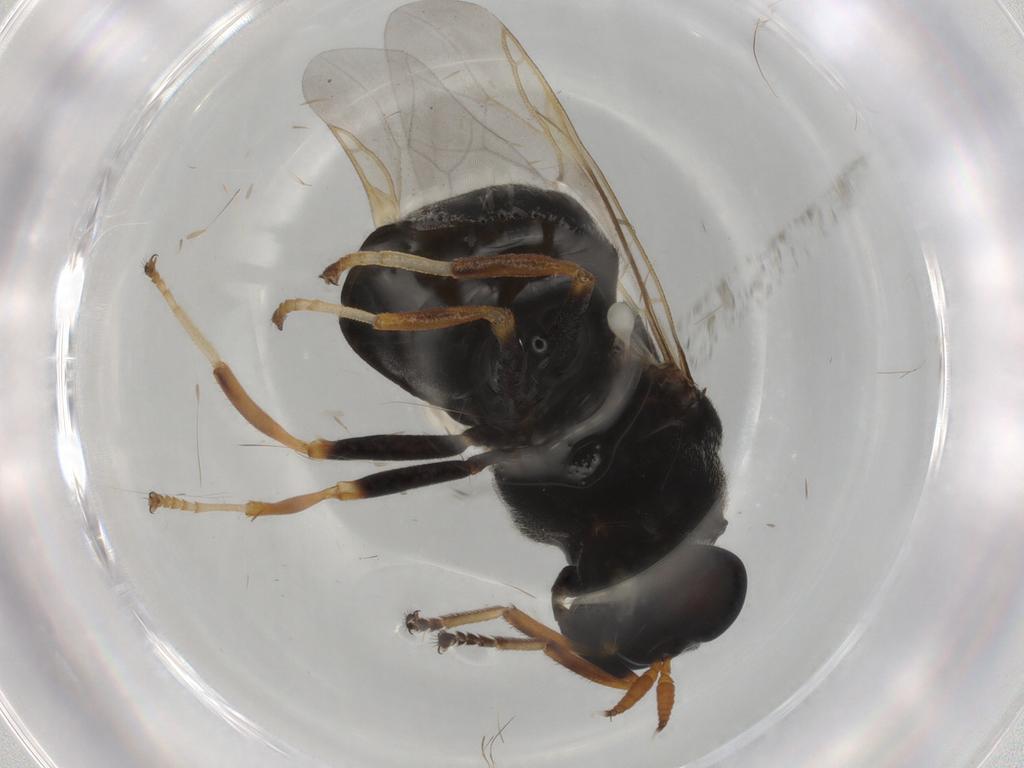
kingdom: Animalia
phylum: Arthropoda
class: Insecta
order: Diptera
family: Stratiomyidae
